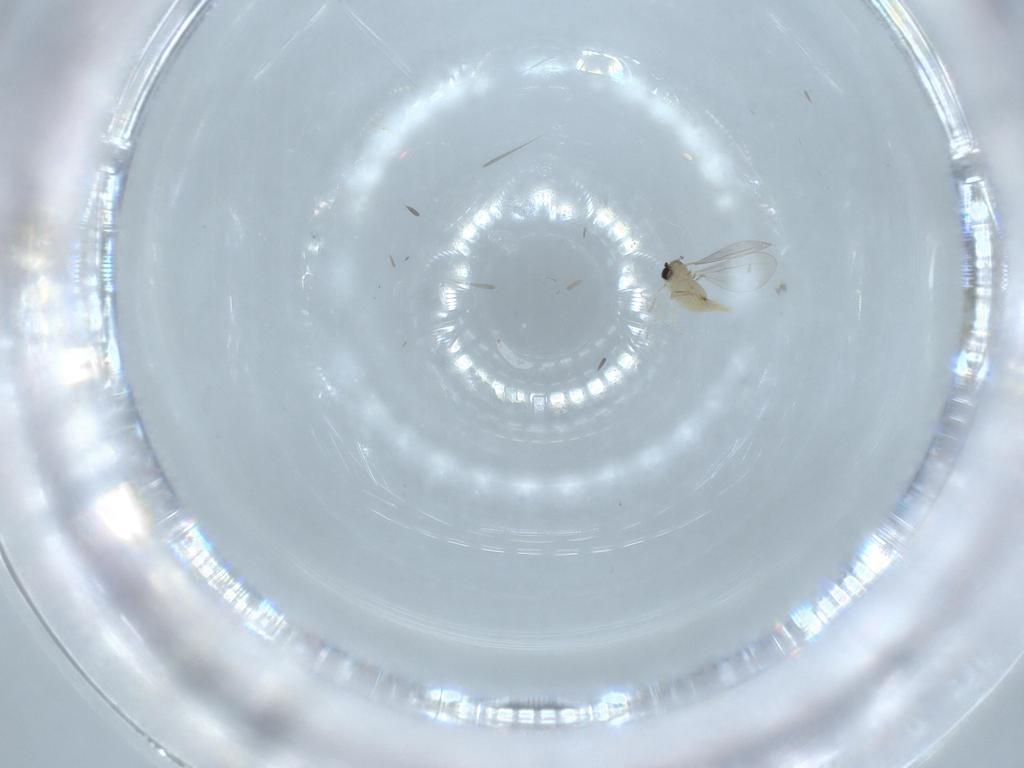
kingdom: Animalia
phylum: Arthropoda
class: Insecta
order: Diptera
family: Cecidomyiidae
